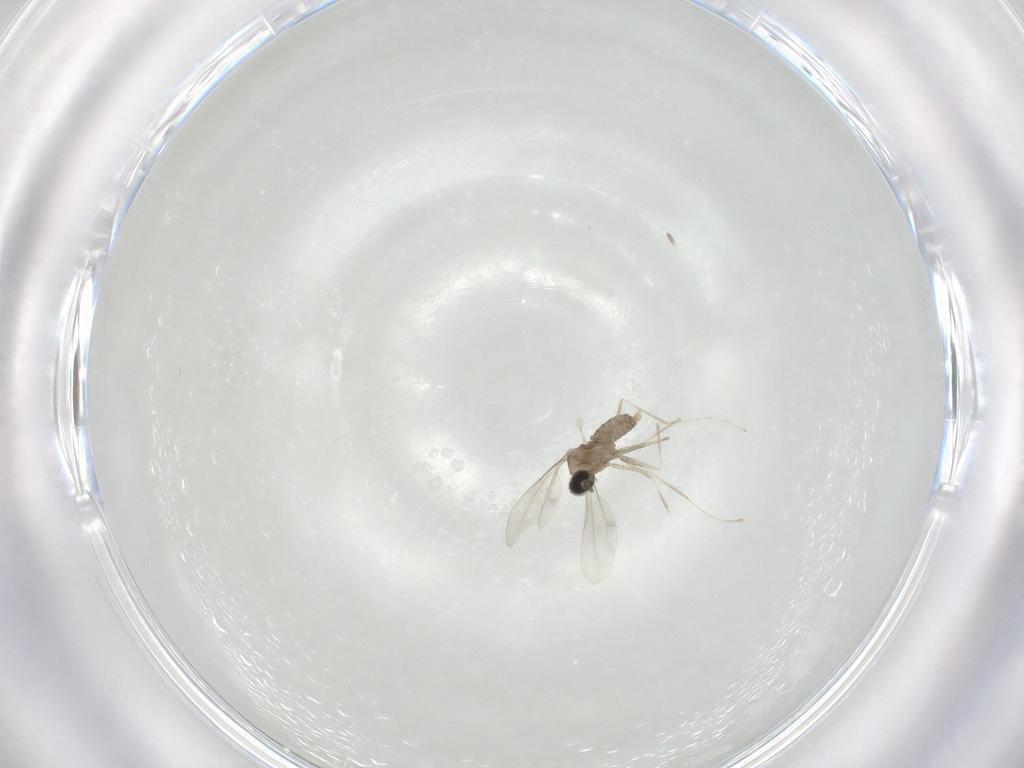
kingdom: Animalia
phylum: Arthropoda
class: Insecta
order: Diptera
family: Cecidomyiidae
